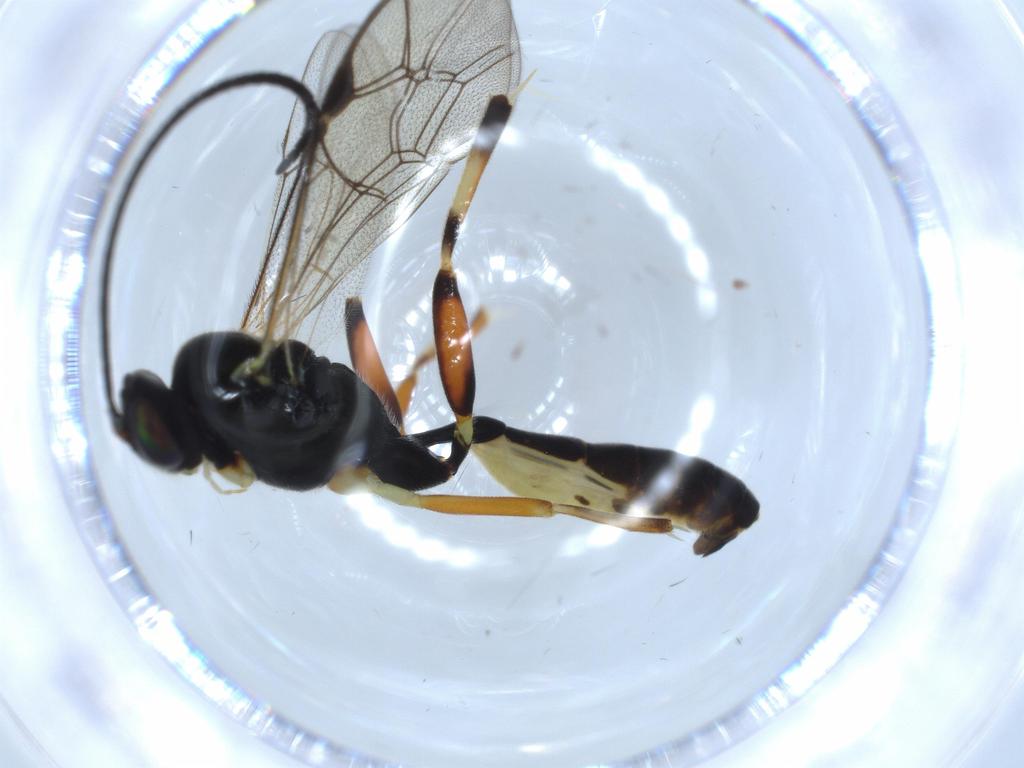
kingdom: Animalia
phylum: Arthropoda
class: Insecta
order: Hymenoptera
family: Ichneumonidae
